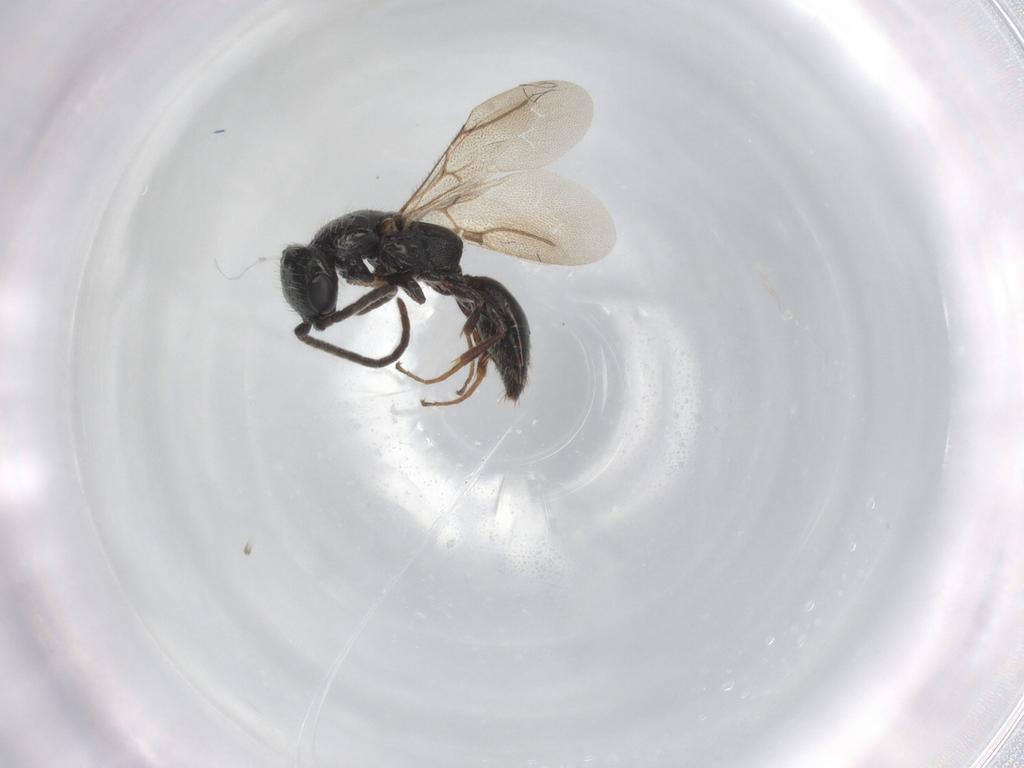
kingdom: Animalia
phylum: Arthropoda
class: Insecta
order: Hymenoptera
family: Bethylidae
